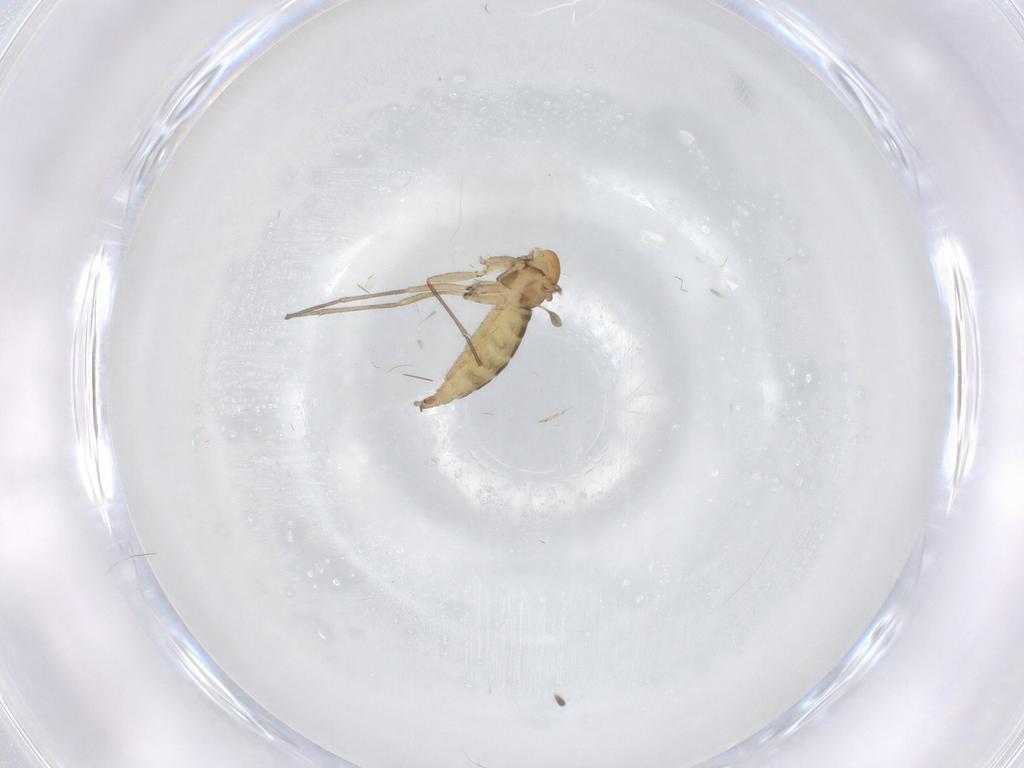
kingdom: Animalia
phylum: Arthropoda
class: Insecta
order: Diptera
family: Sciaridae
